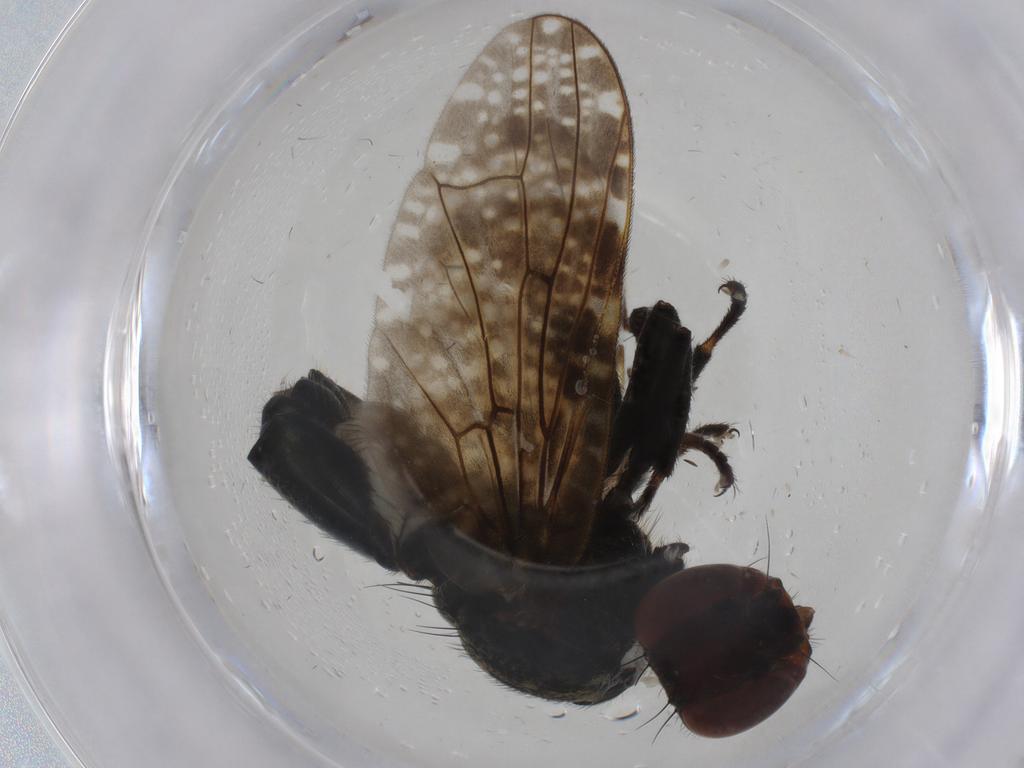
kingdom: Animalia
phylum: Arthropoda
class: Insecta
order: Diptera
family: Platystomatidae
